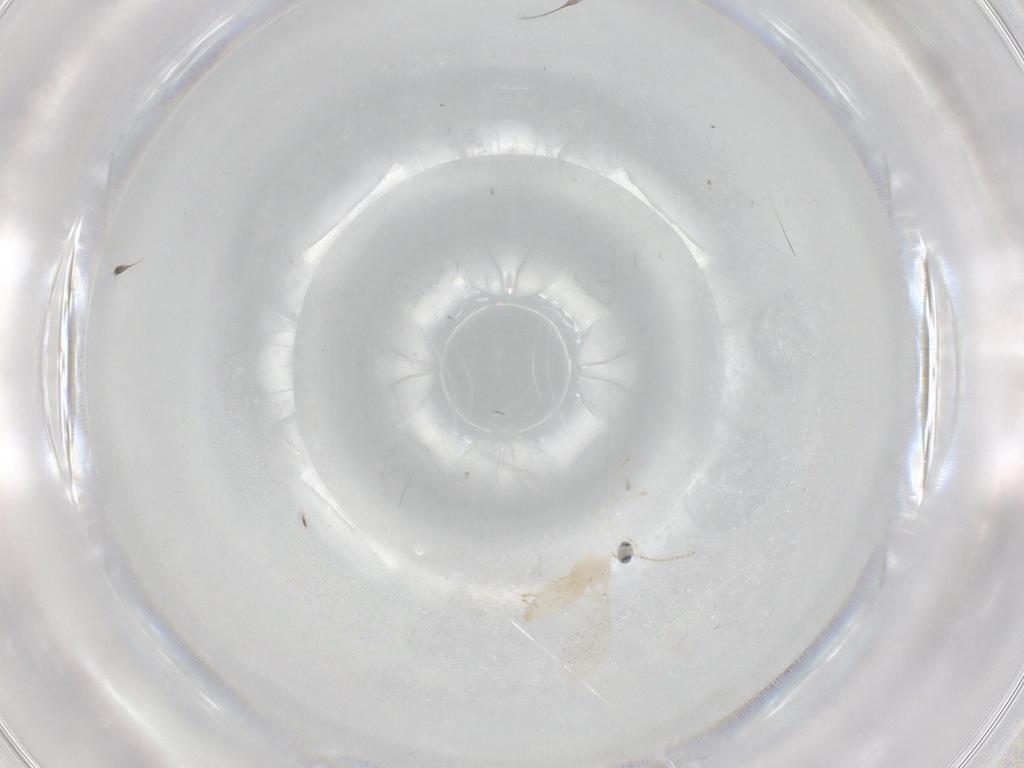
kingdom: Animalia
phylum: Arthropoda
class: Insecta
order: Diptera
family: Cecidomyiidae
